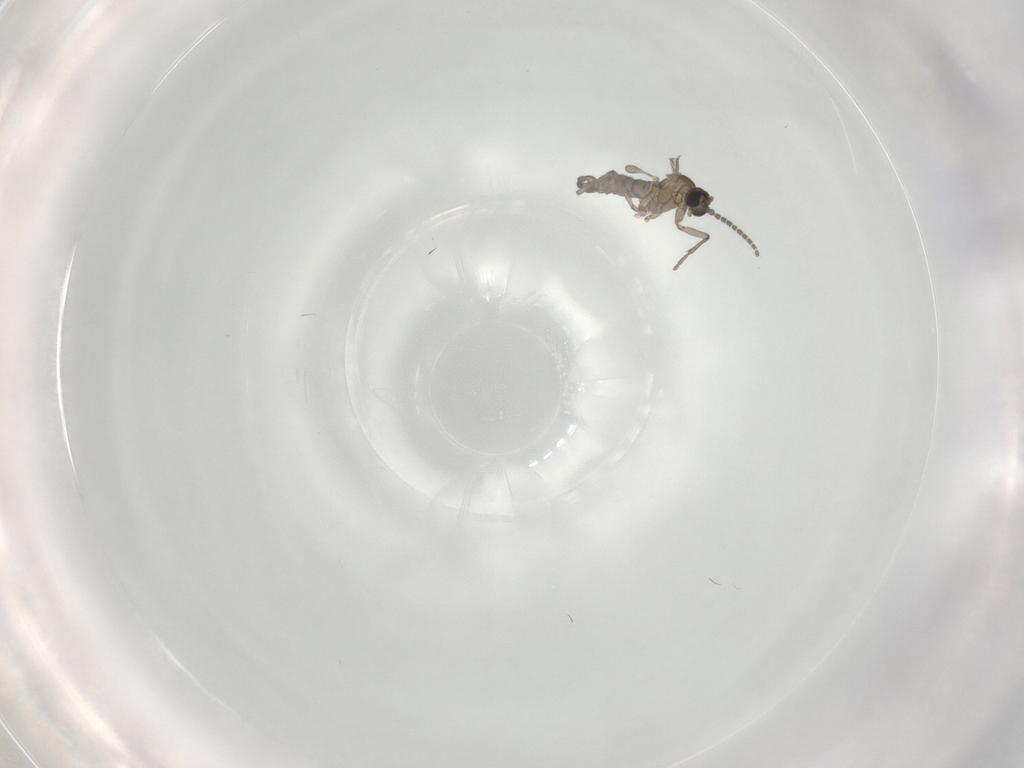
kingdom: Animalia
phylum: Arthropoda
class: Insecta
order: Diptera
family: Sciaridae
